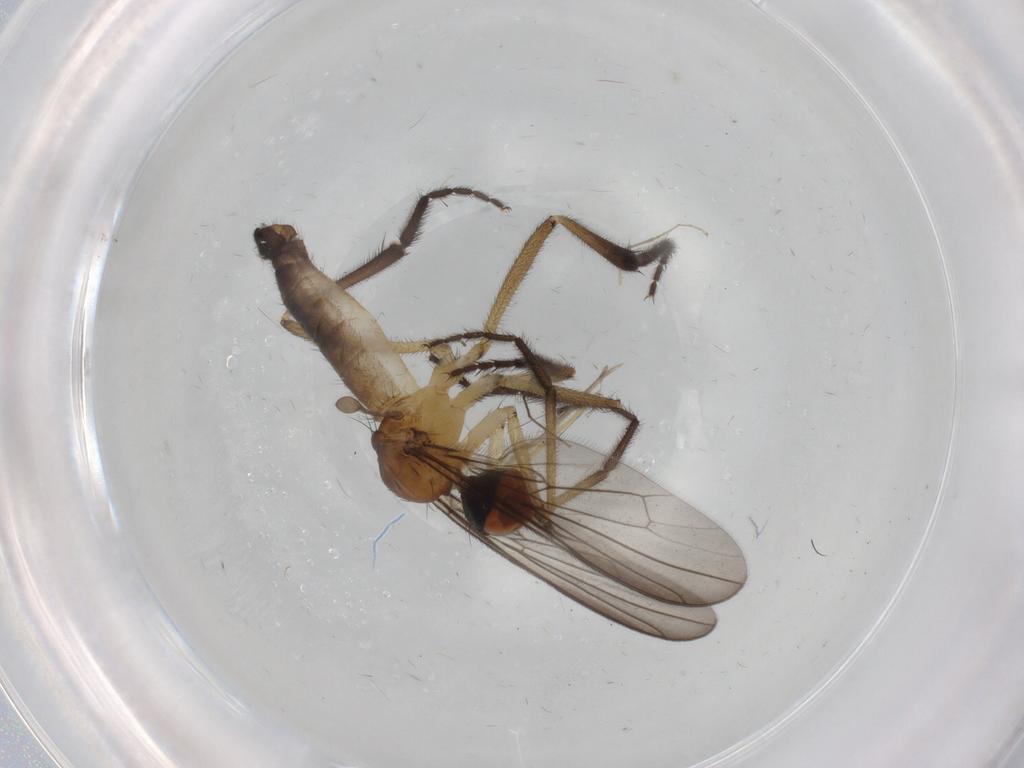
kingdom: Animalia
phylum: Arthropoda
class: Insecta
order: Diptera
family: Empididae
